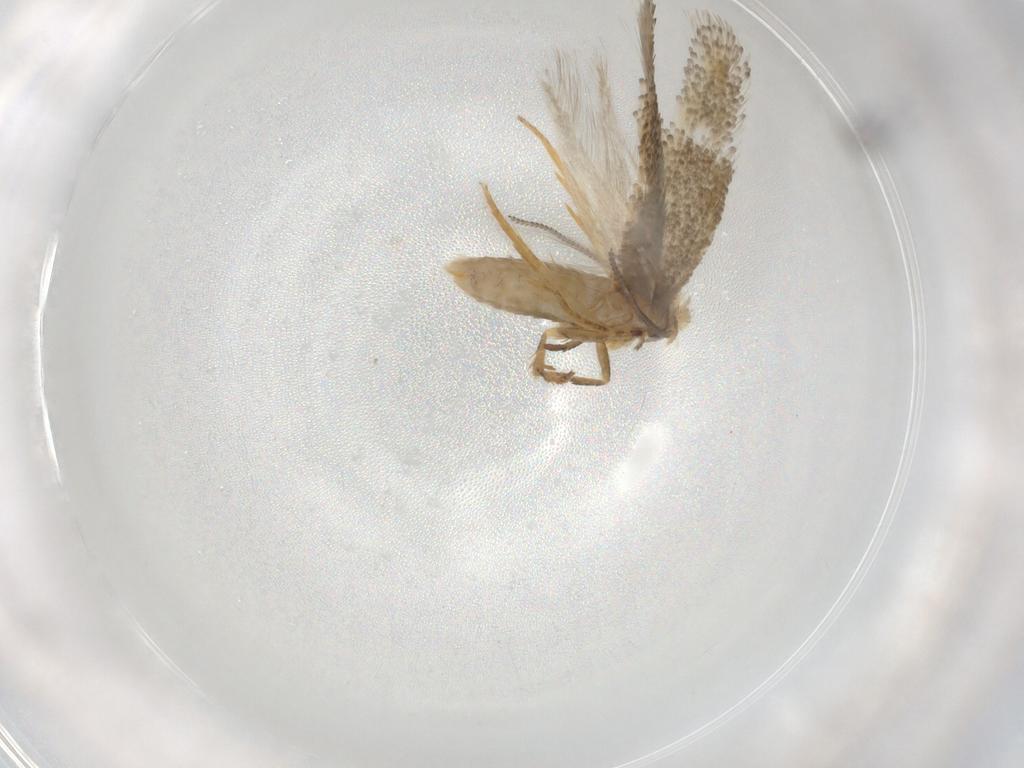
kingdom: Animalia
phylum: Arthropoda
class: Insecta
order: Lepidoptera
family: Nepticulidae
